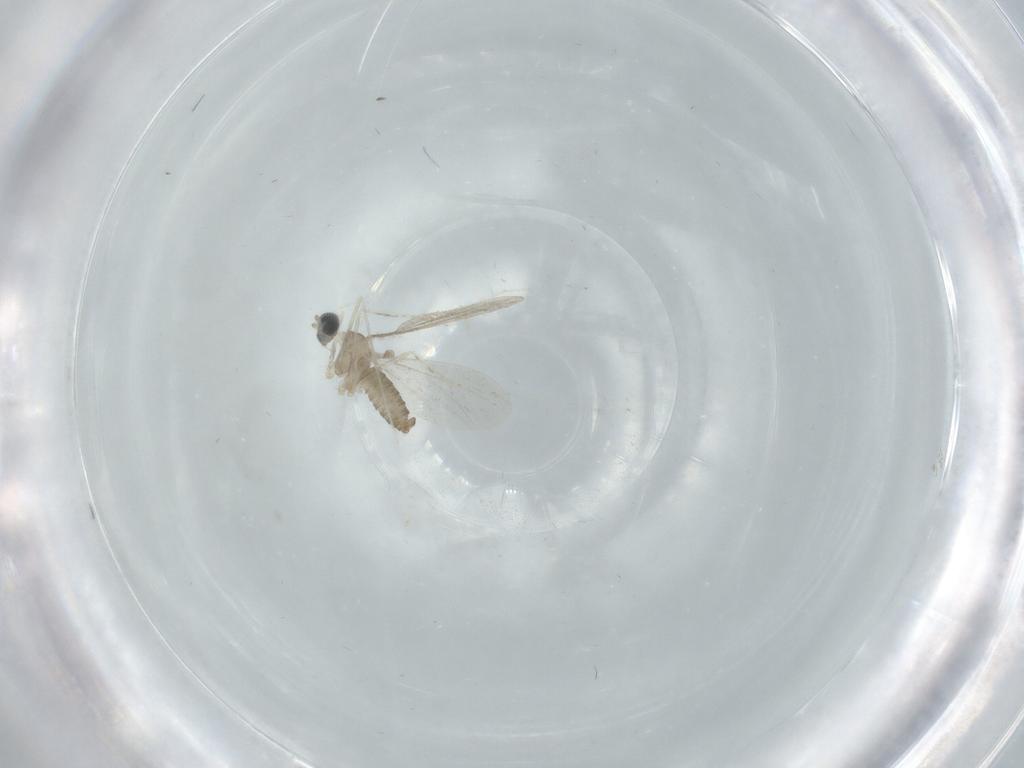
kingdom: Animalia
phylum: Arthropoda
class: Insecta
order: Diptera
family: Cecidomyiidae
